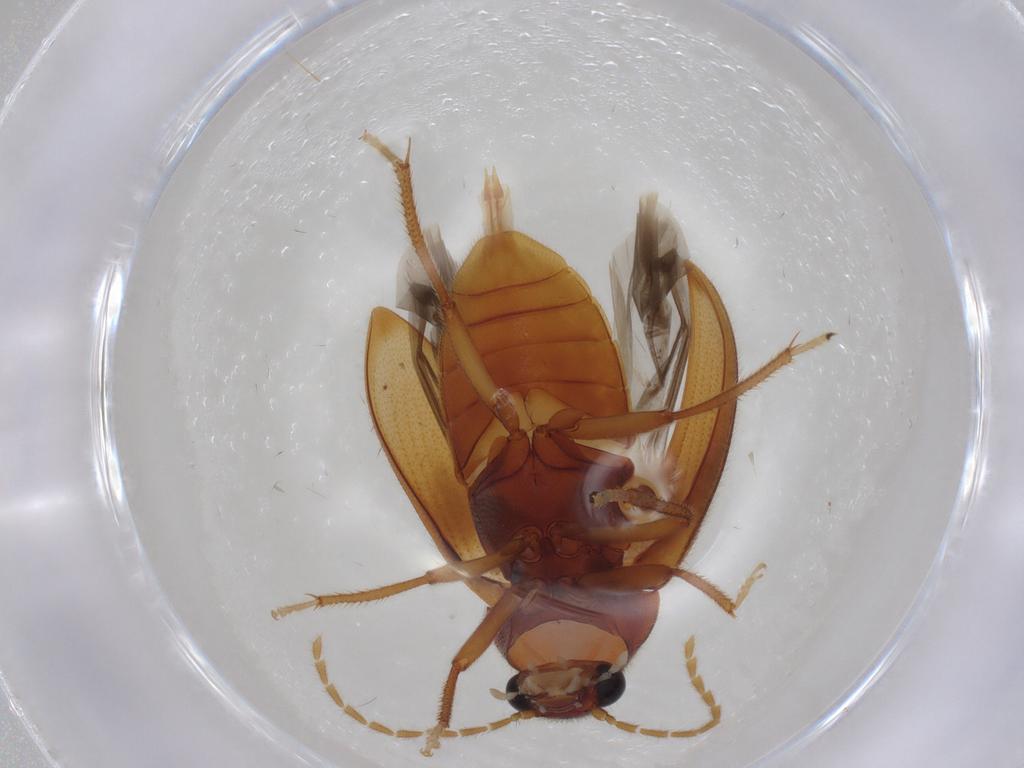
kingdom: Animalia
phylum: Arthropoda
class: Insecta
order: Coleoptera
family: Ptilodactylidae
